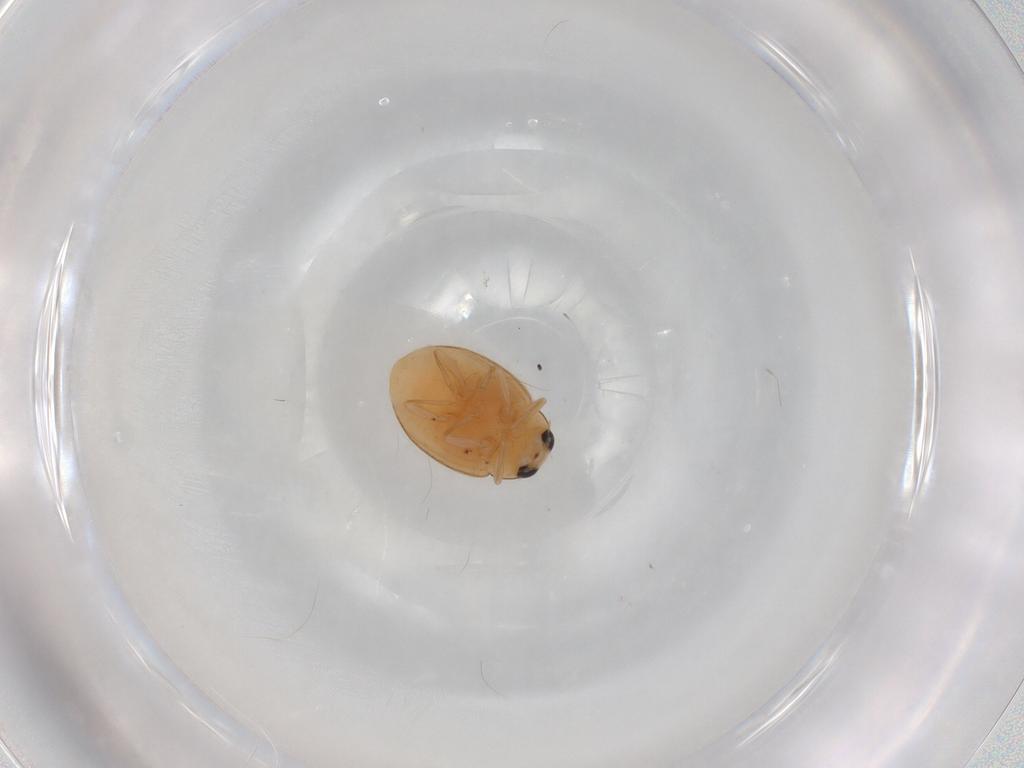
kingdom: Animalia
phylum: Arthropoda
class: Insecta
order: Coleoptera
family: Coccinellidae
